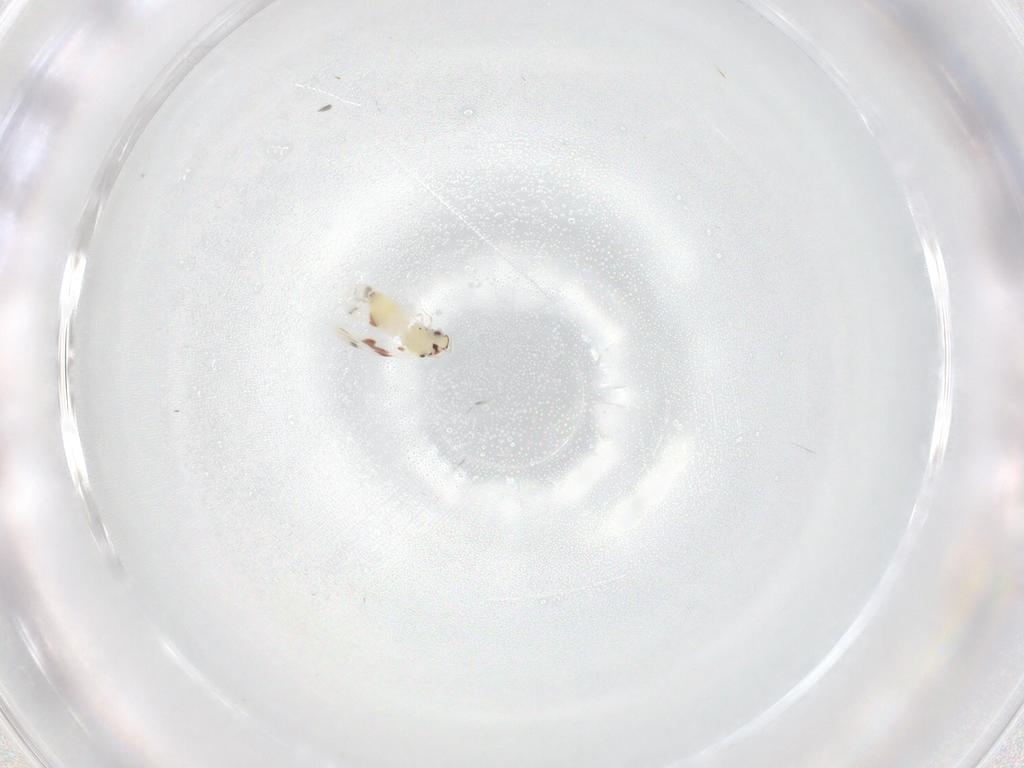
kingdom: Animalia
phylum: Arthropoda
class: Insecta
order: Hemiptera
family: Aleyrodidae
